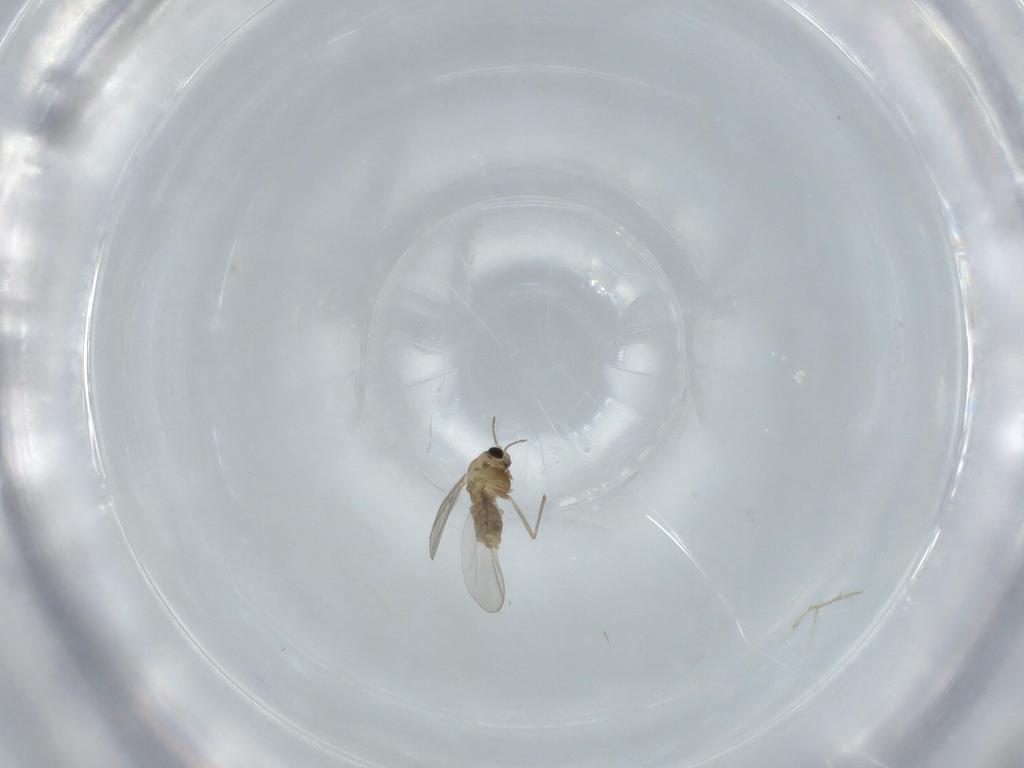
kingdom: Animalia
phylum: Arthropoda
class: Insecta
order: Diptera
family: Chironomidae
